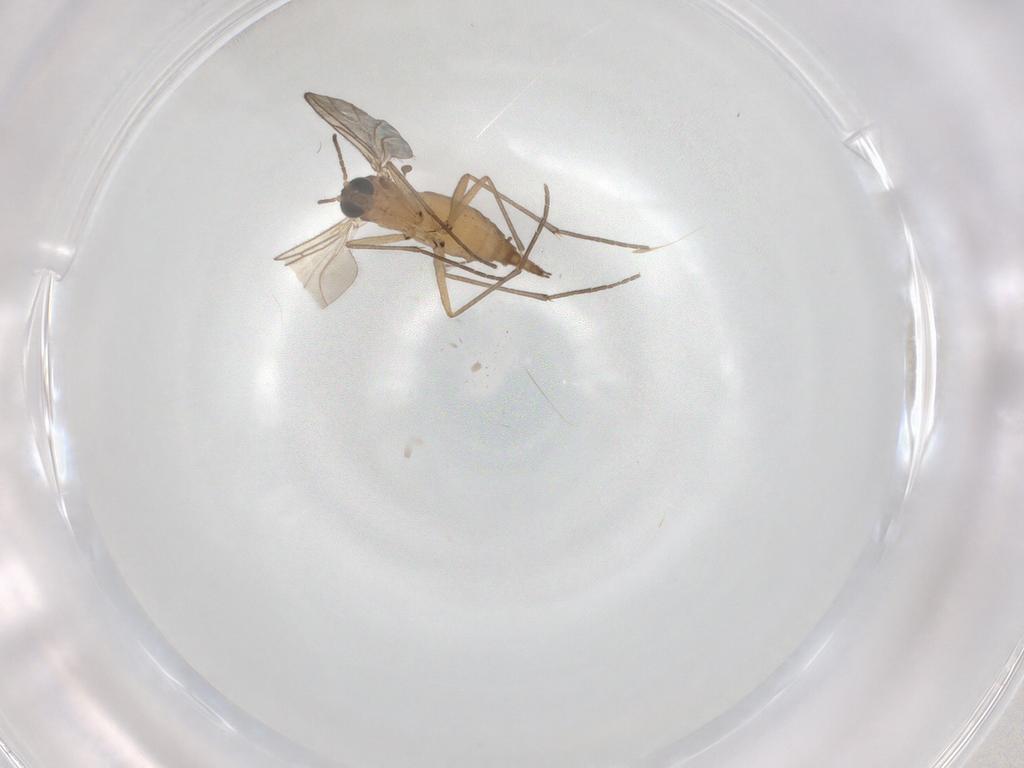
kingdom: Animalia
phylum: Arthropoda
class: Insecta
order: Diptera
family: Sciaridae
